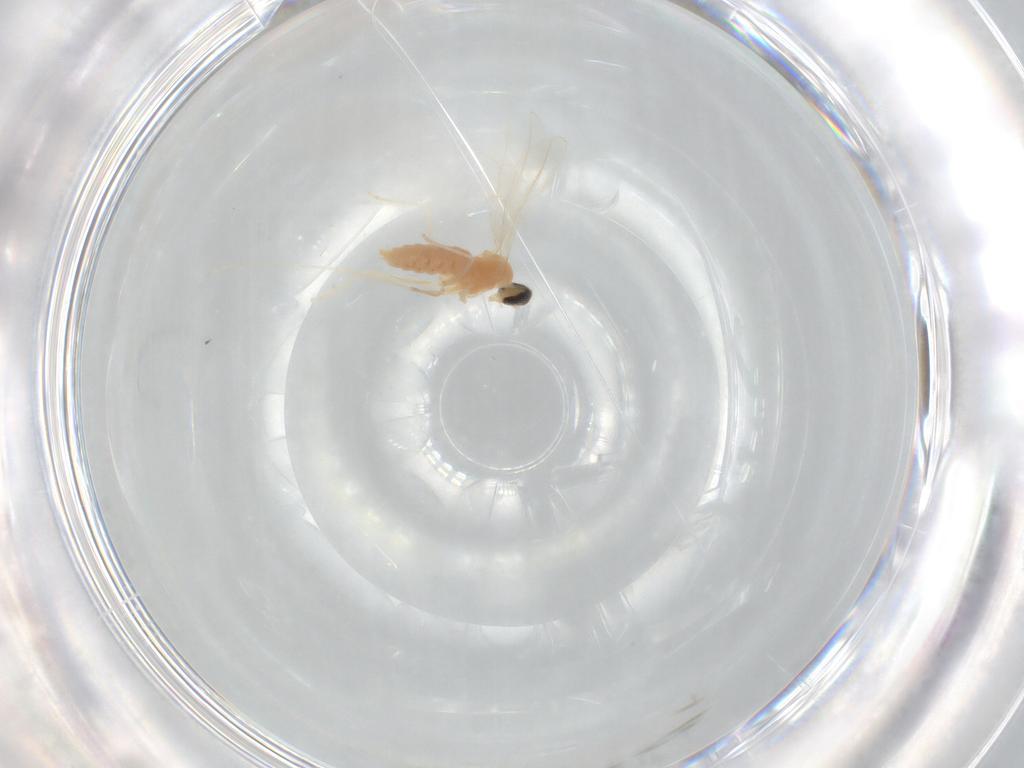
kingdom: Animalia
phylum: Arthropoda
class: Insecta
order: Diptera
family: Cecidomyiidae
